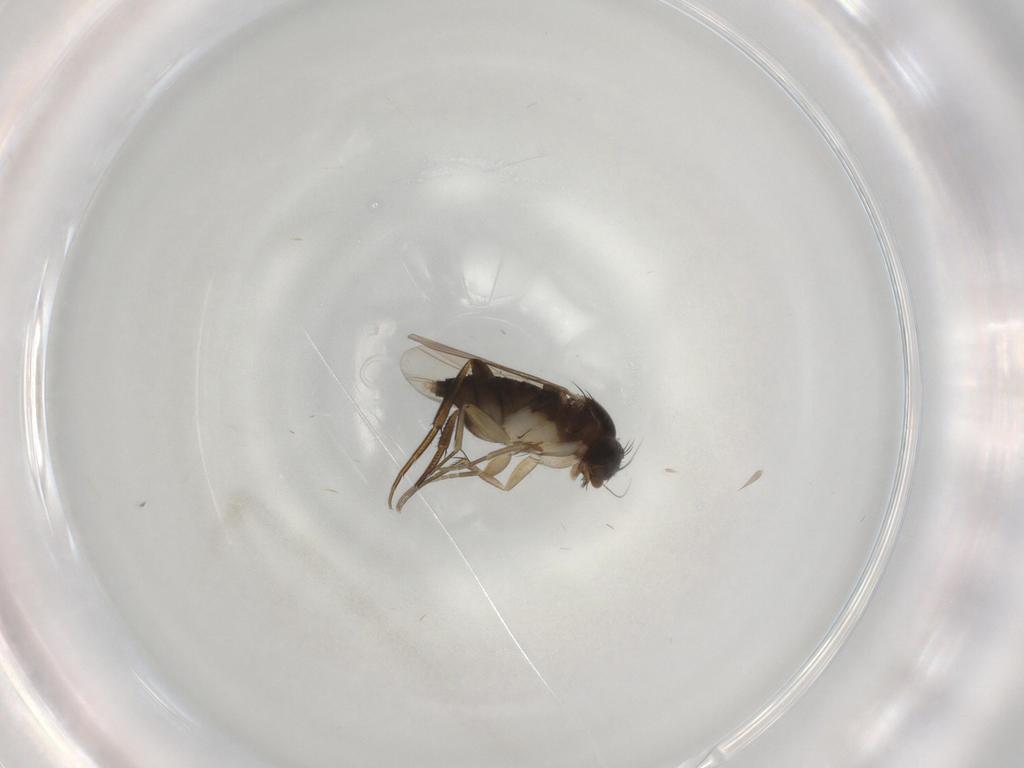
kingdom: Animalia
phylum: Arthropoda
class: Insecta
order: Diptera
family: Phoridae
